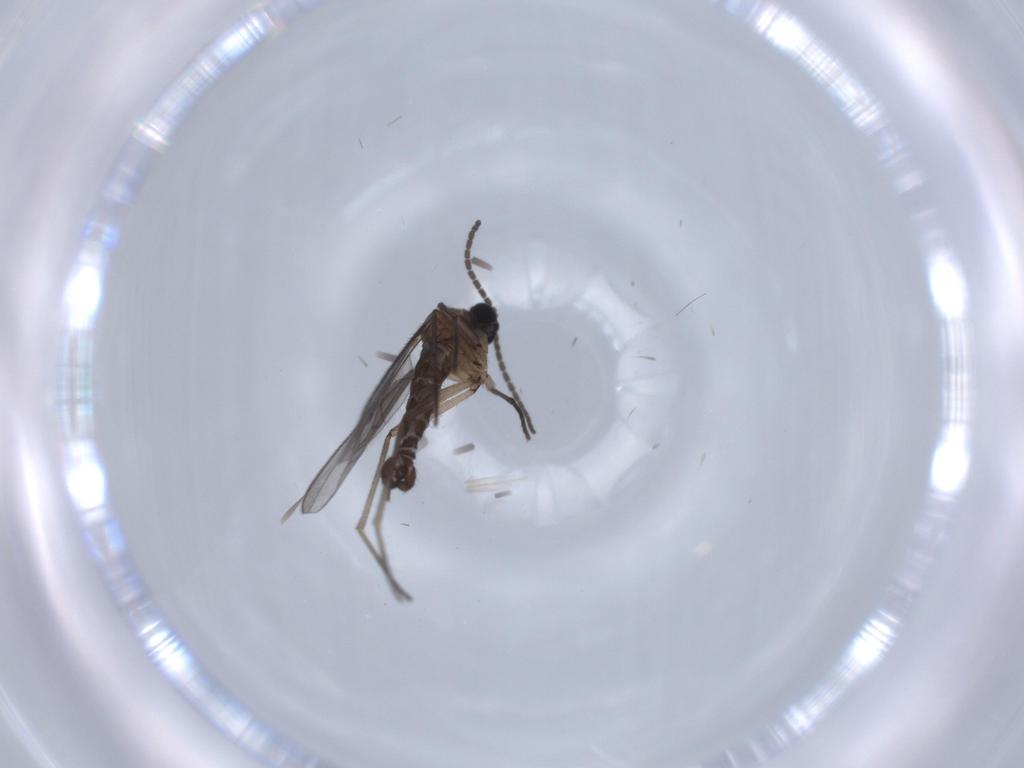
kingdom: Animalia
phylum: Arthropoda
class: Insecta
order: Diptera
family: Sciaridae
